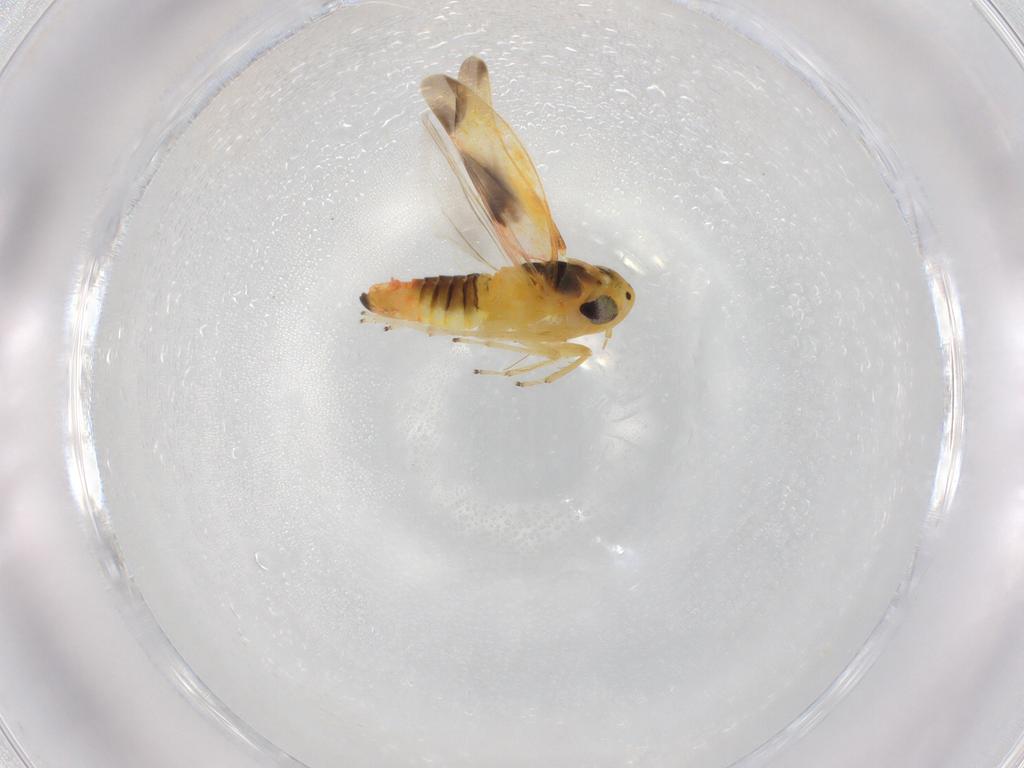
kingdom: Animalia
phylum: Arthropoda
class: Insecta
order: Hemiptera
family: Cicadellidae
